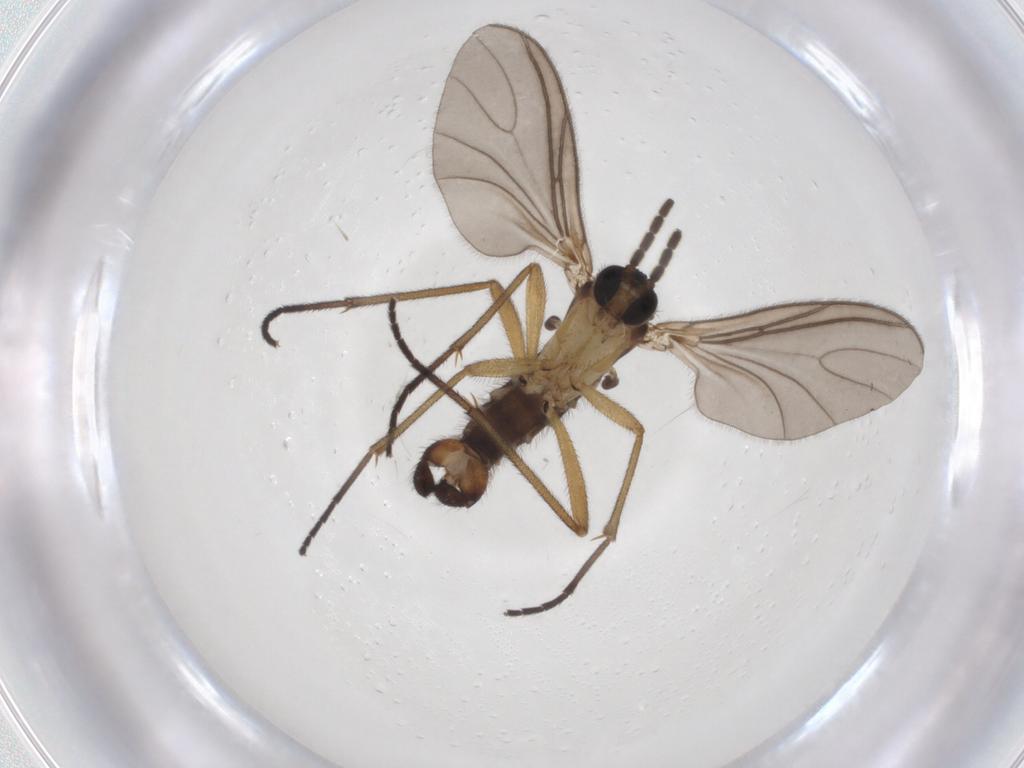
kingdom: Animalia
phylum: Arthropoda
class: Insecta
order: Diptera
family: Sciaridae
